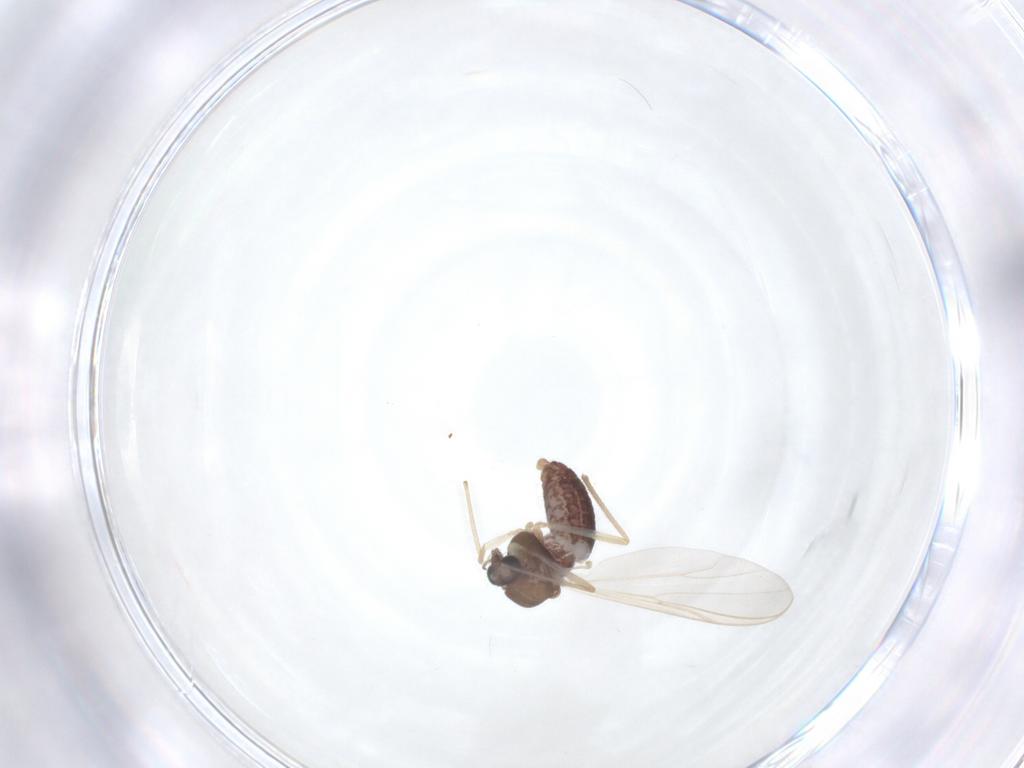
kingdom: Animalia
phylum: Arthropoda
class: Insecta
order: Diptera
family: Chironomidae
